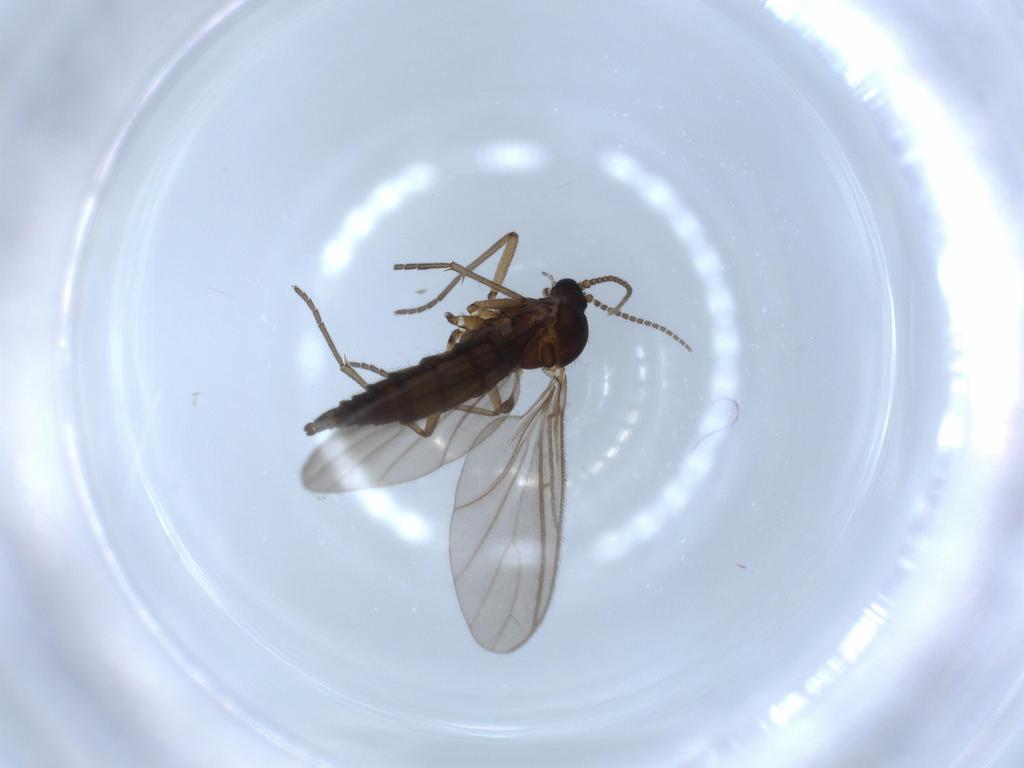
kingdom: Animalia
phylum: Arthropoda
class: Insecta
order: Diptera
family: Sciaridae
